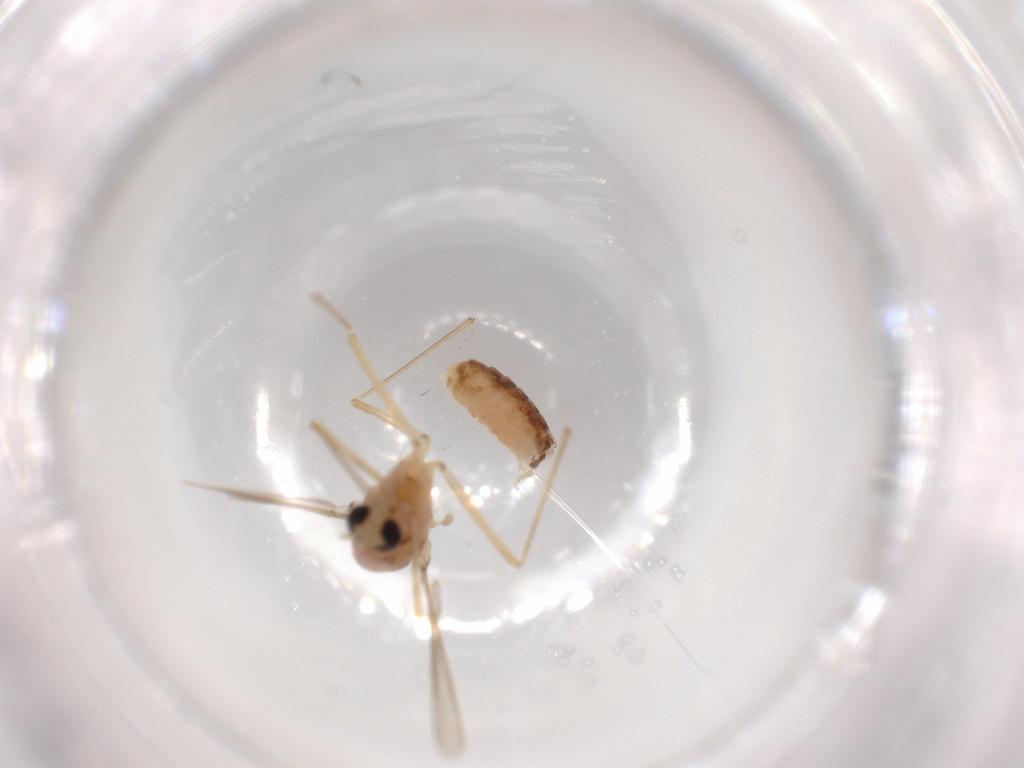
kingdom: Animalia
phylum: Arthropoda
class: Insecta
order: Diptera
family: Chironomidae
